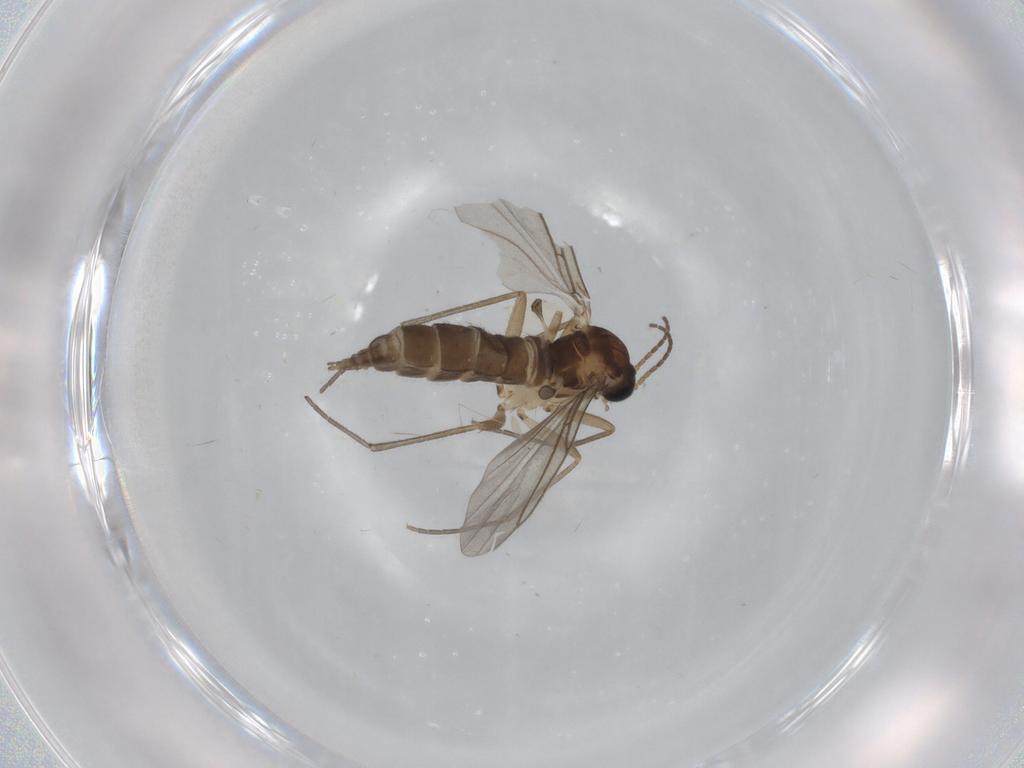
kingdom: Animalia
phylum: Arthropoda
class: Insecta
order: Diptera
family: Sciaridae
